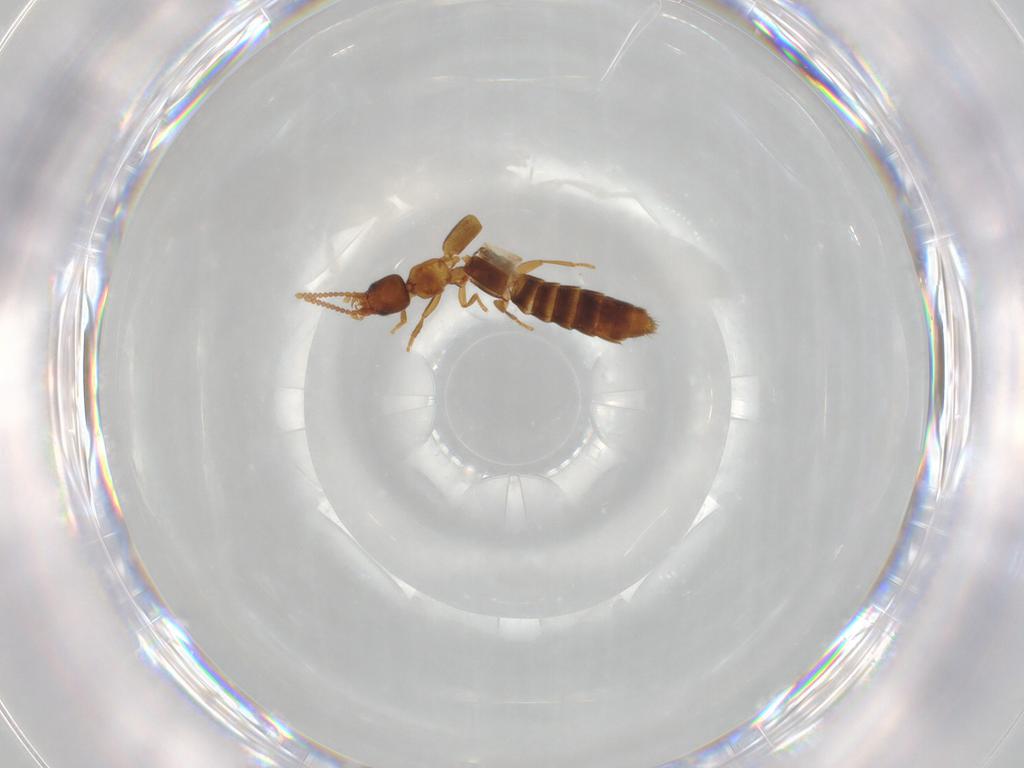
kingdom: Animalia
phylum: Arthropoda
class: Insecta
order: Coleoptera
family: Staphylinidae
